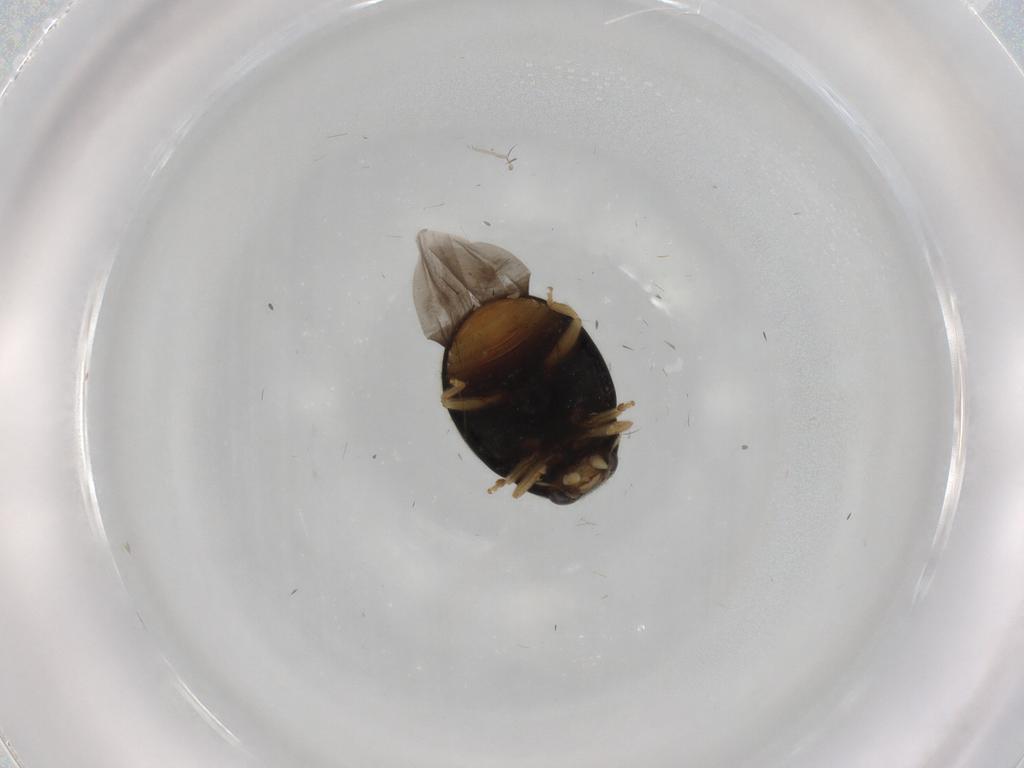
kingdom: Animalia
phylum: Arthropoda
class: Insecta
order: Coleoptera
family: Coccinellidae
